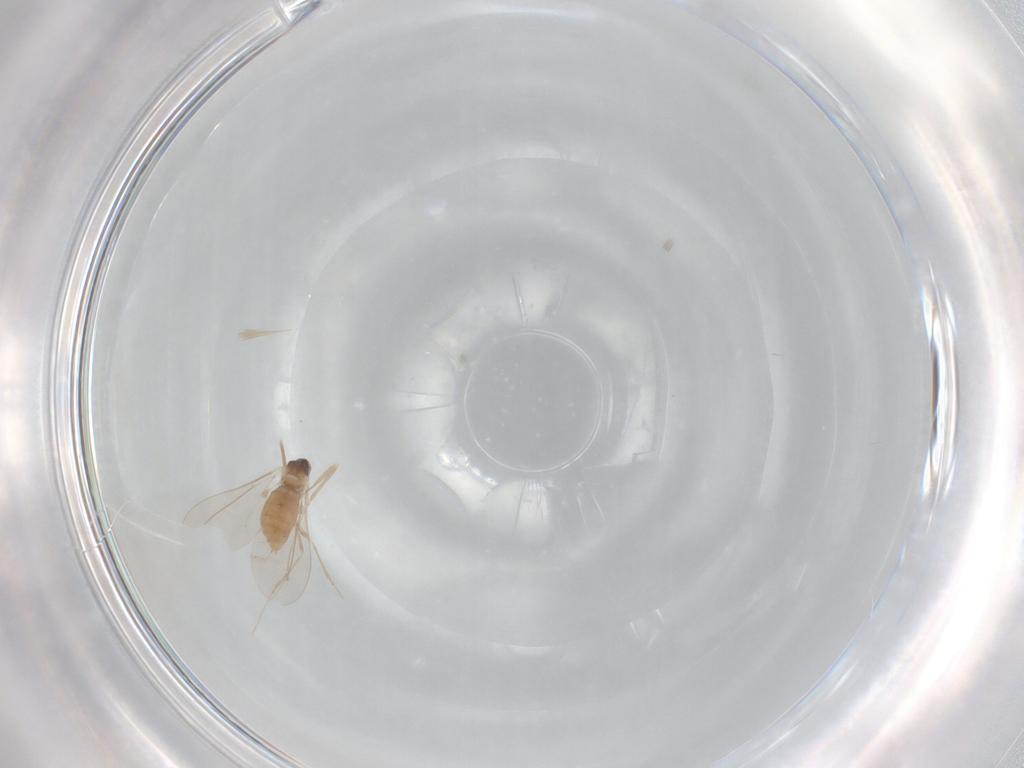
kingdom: Animalia
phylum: Arthropoda
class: Insecta
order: Diptera
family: Cecidomyiidae
